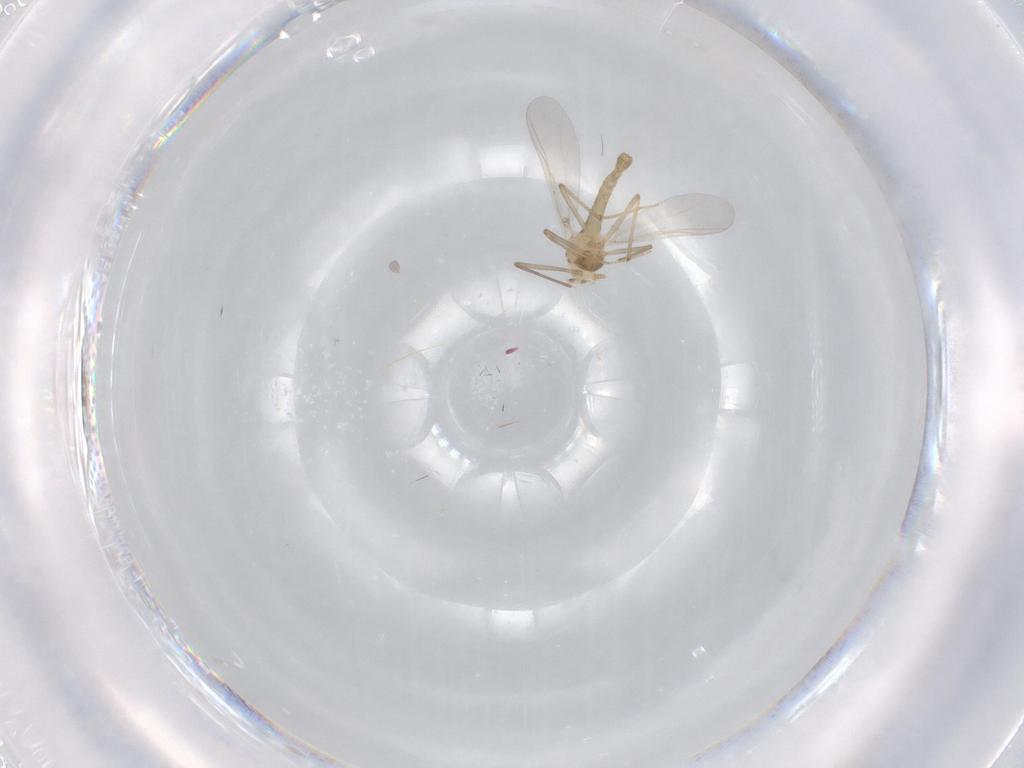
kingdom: Animalia
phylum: Arthropoda
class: Insecta
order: Diptera
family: Chironomidae
